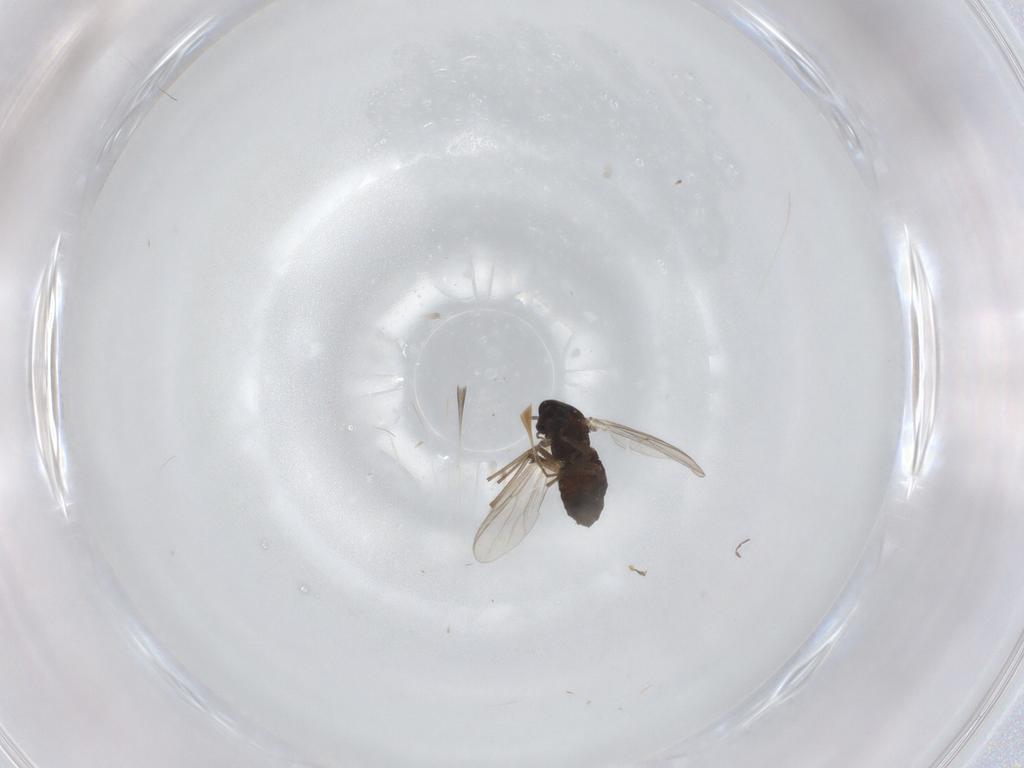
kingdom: Animalia
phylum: Arthropoda
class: Insecta
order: Diptera
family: Chironomidae
